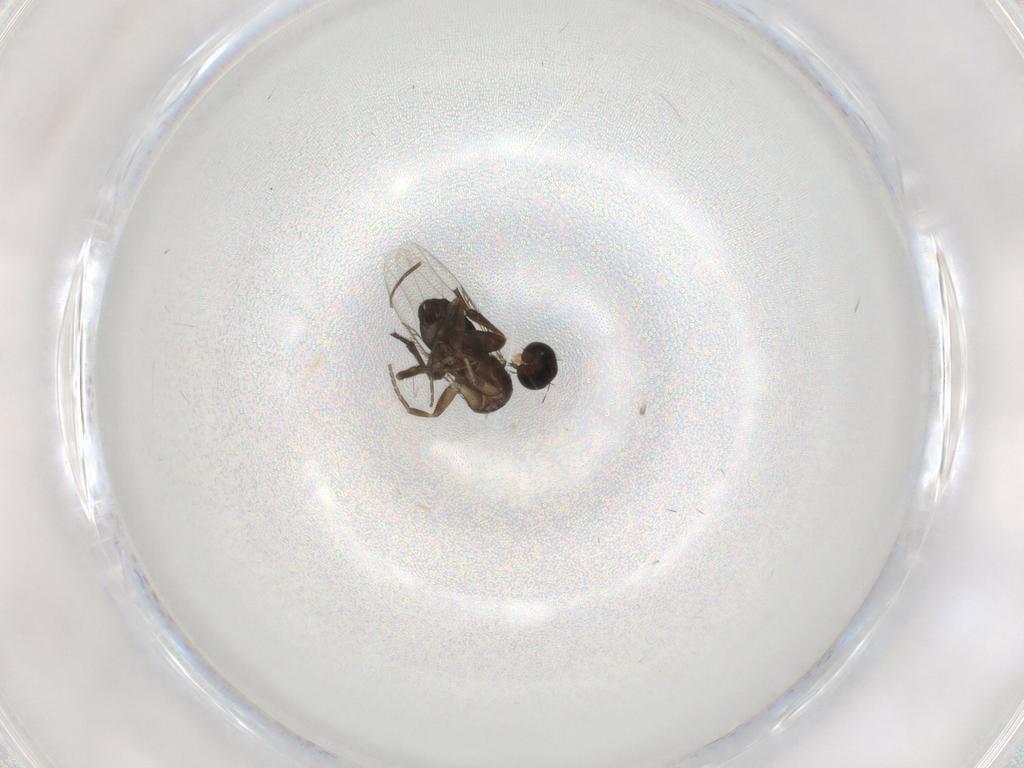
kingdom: Animalia
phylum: Arthropoda
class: Insecta
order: Diptera
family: Phoridae
